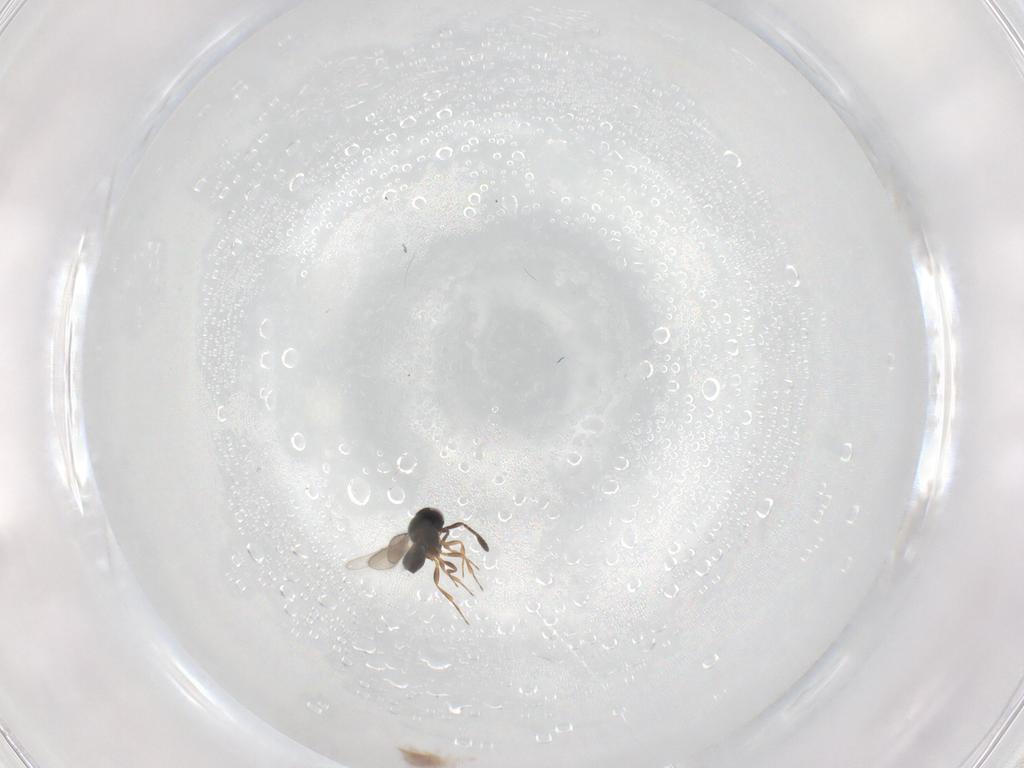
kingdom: Animalia
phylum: Arthropoda
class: Insecta
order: Hymenoptera
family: Scelionidae
